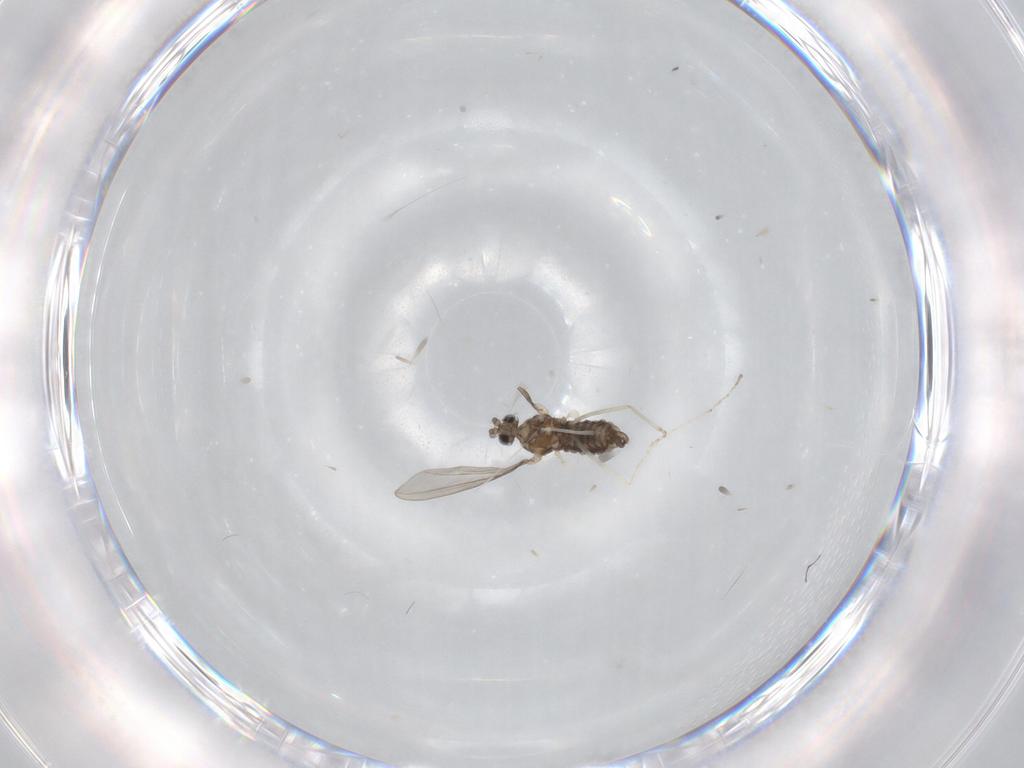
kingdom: Animalia
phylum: Arthropoda
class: Insecta
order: Diptera
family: Cecidomyiidae
